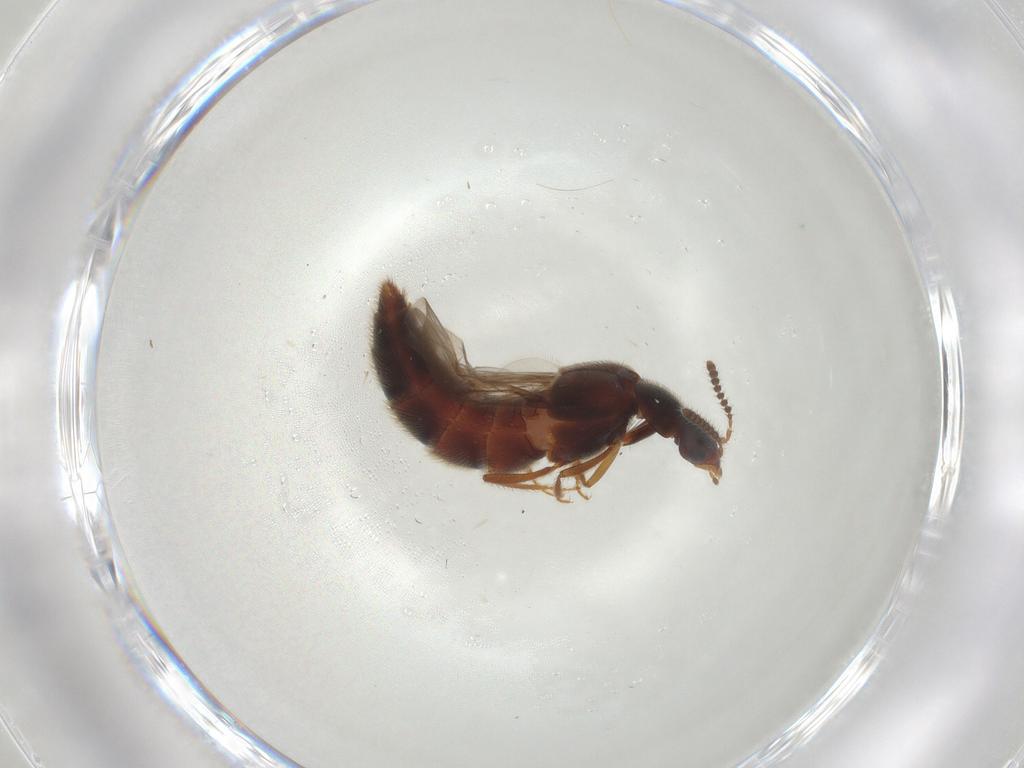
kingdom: Animalia
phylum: Arthropoda
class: Insecta
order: Coleoptera
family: Staphylinidae
